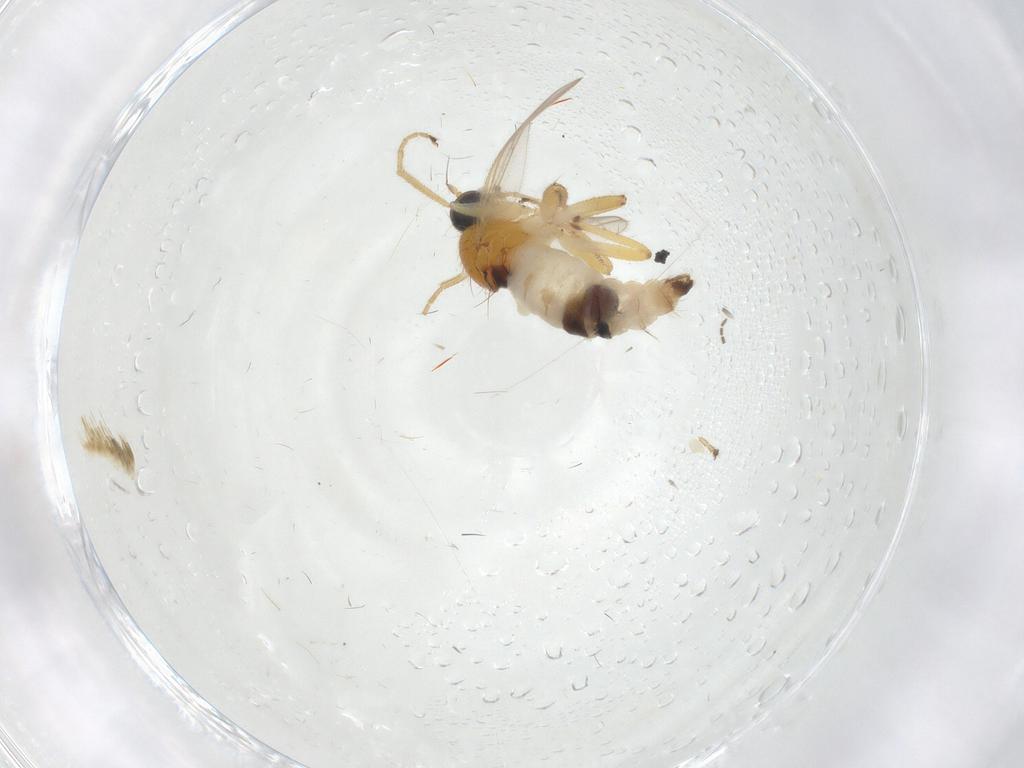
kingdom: Animalia
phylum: Arthropoda
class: Insecta
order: Diptera
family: Hybotidae
